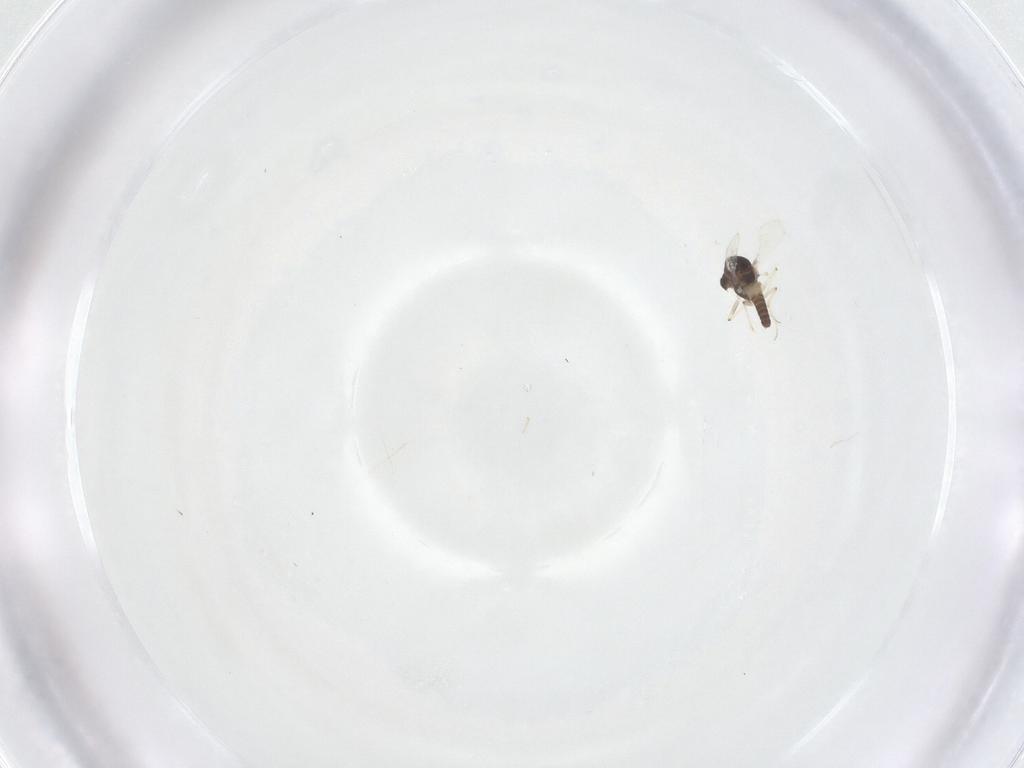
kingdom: Animalia
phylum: Arthropoda
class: Insecta
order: Diptera
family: Chironomidae
